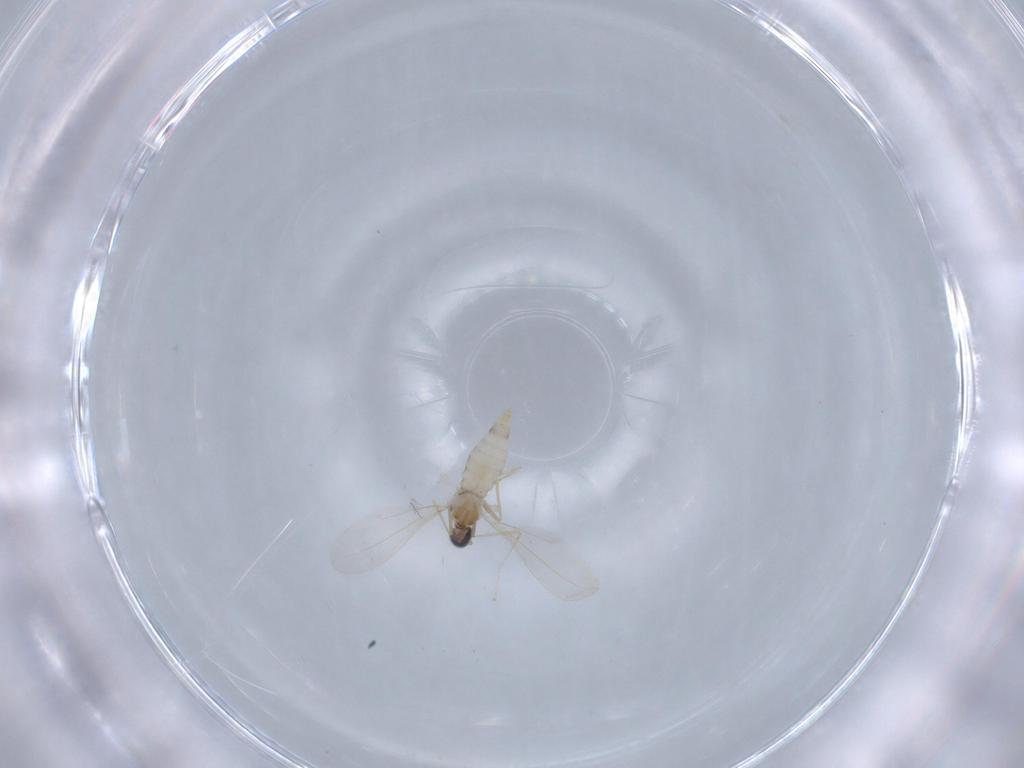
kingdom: Animalia
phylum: Arthropoda
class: Insecta
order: Diptera
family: Cecidomyiidae
